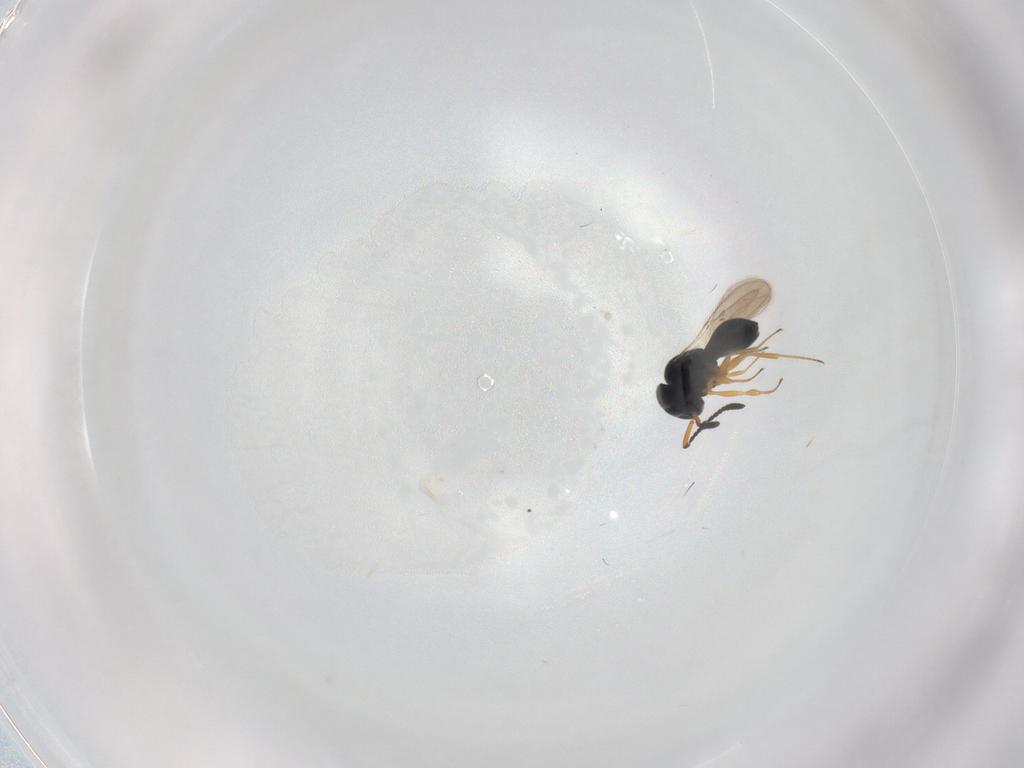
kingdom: Animalia
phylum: Arthropoda
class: Insecta
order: Hymenoptera
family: Scelionidae
